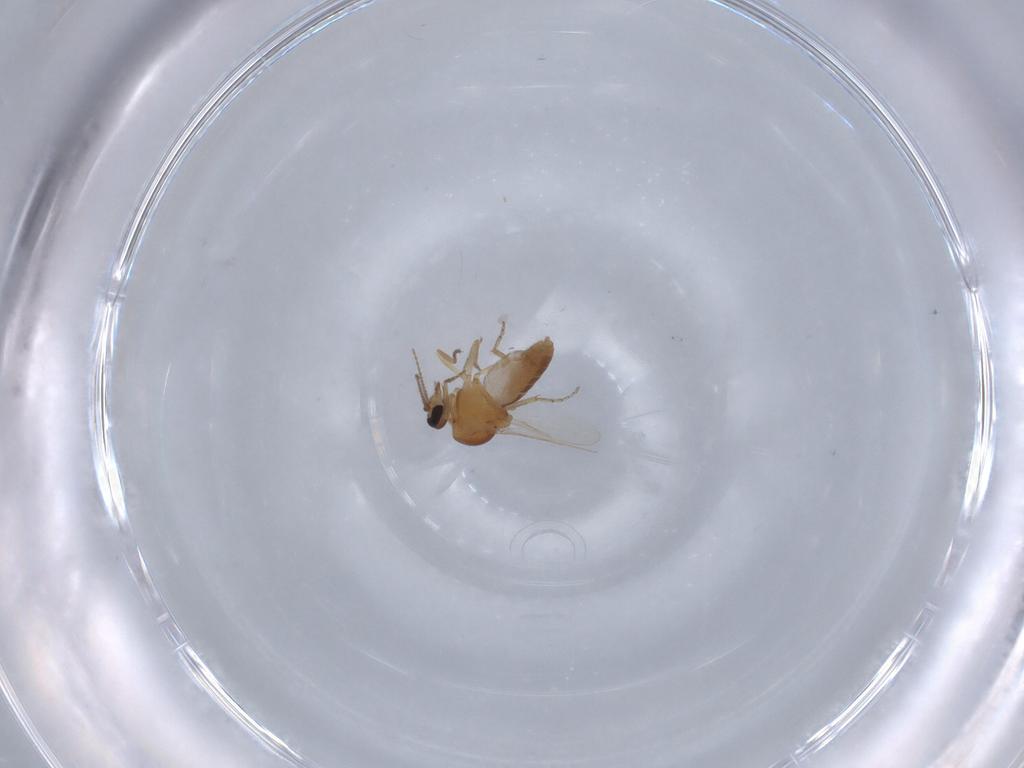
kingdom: Animalia
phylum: Arthropoda
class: Insecta
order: Diptera
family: Ceratopogonidae
